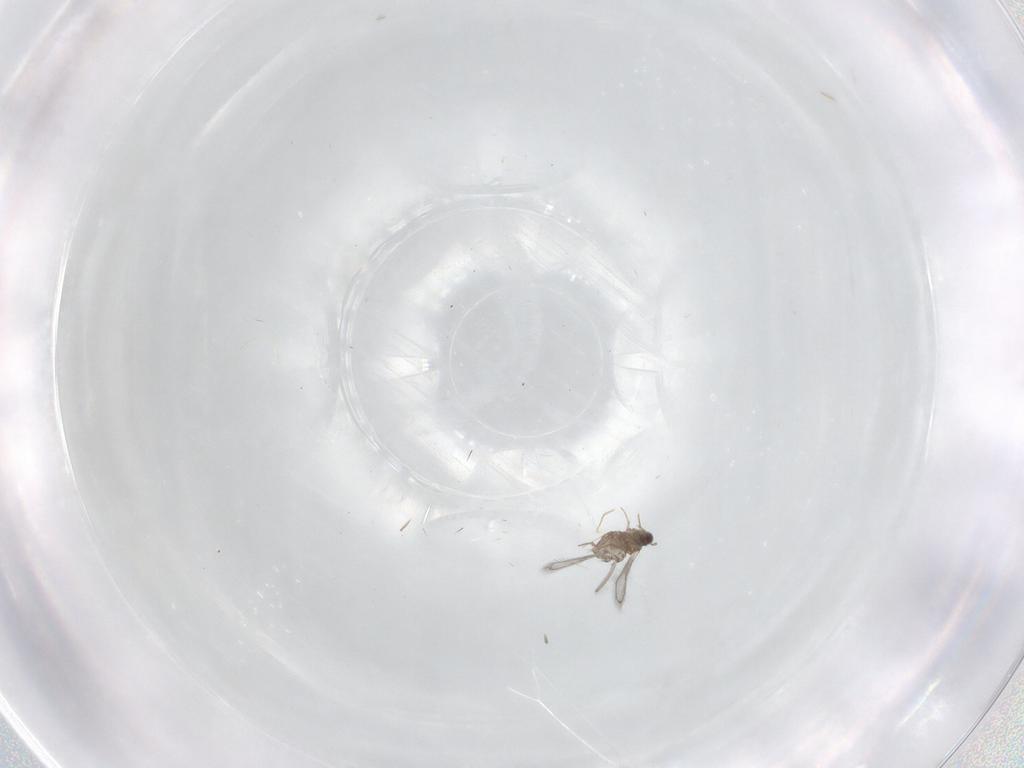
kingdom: Animalia
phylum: Arthropoda
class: Insecta
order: Hymenoptera
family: Mymaridae
